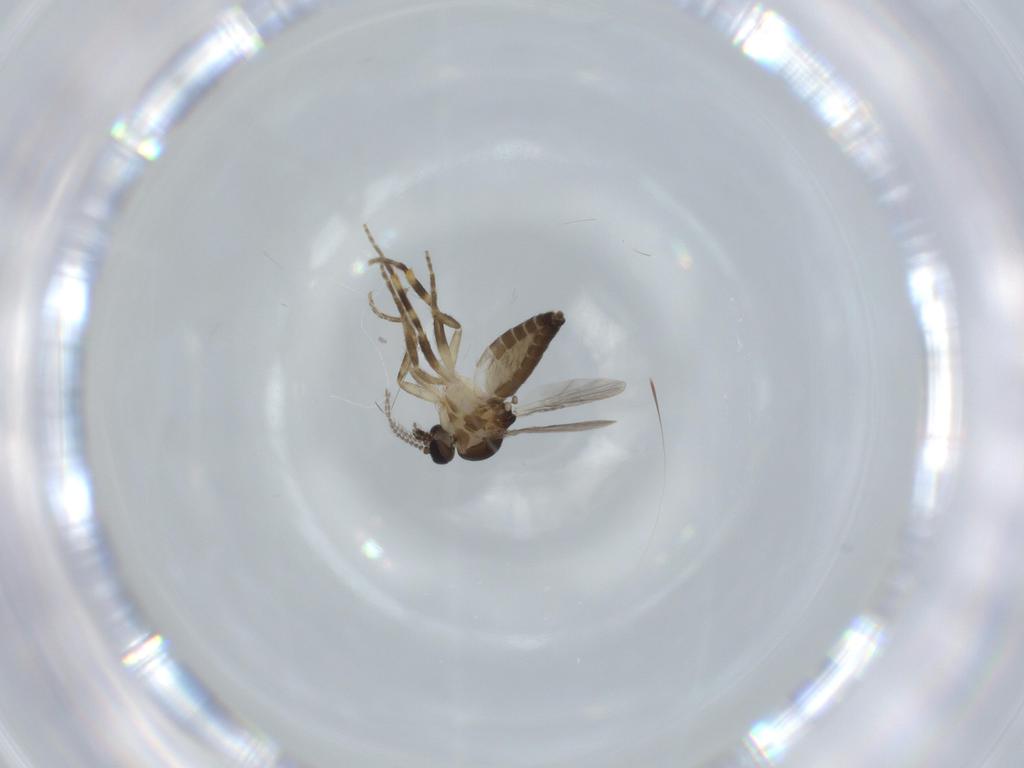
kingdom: Animalia
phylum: Arthropoda
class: Insecta
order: Diptera
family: Ceratopogonidae
